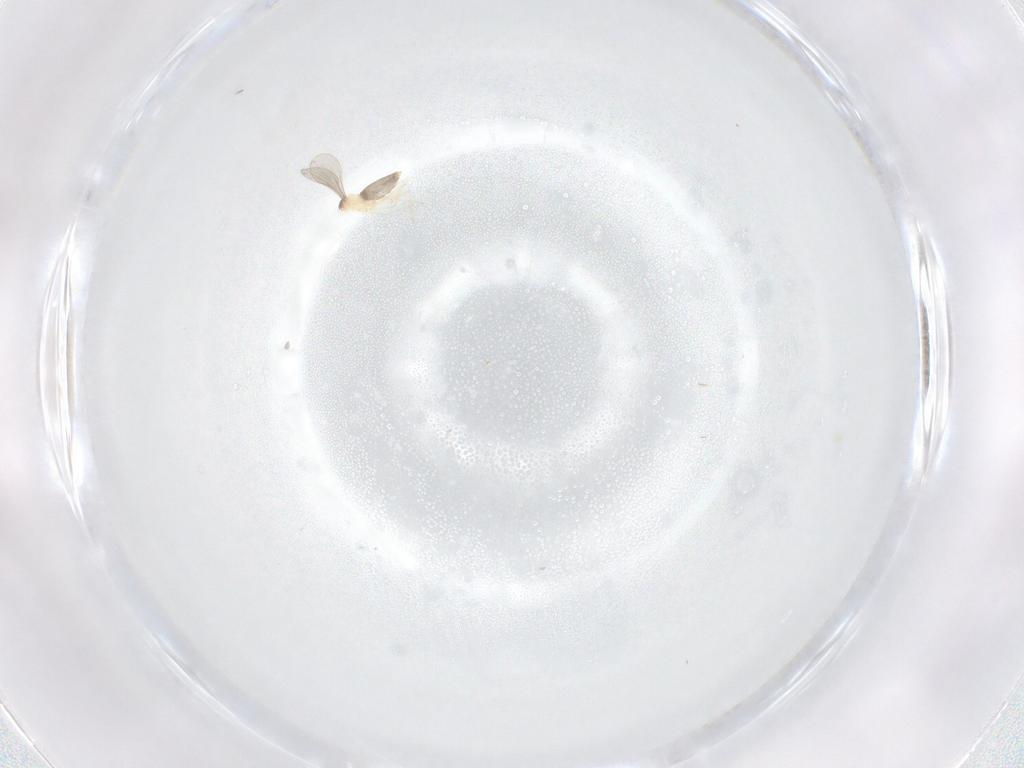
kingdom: Animalia
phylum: Arthropoda
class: Insecta
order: Diptera
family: Cecidomyiidae
